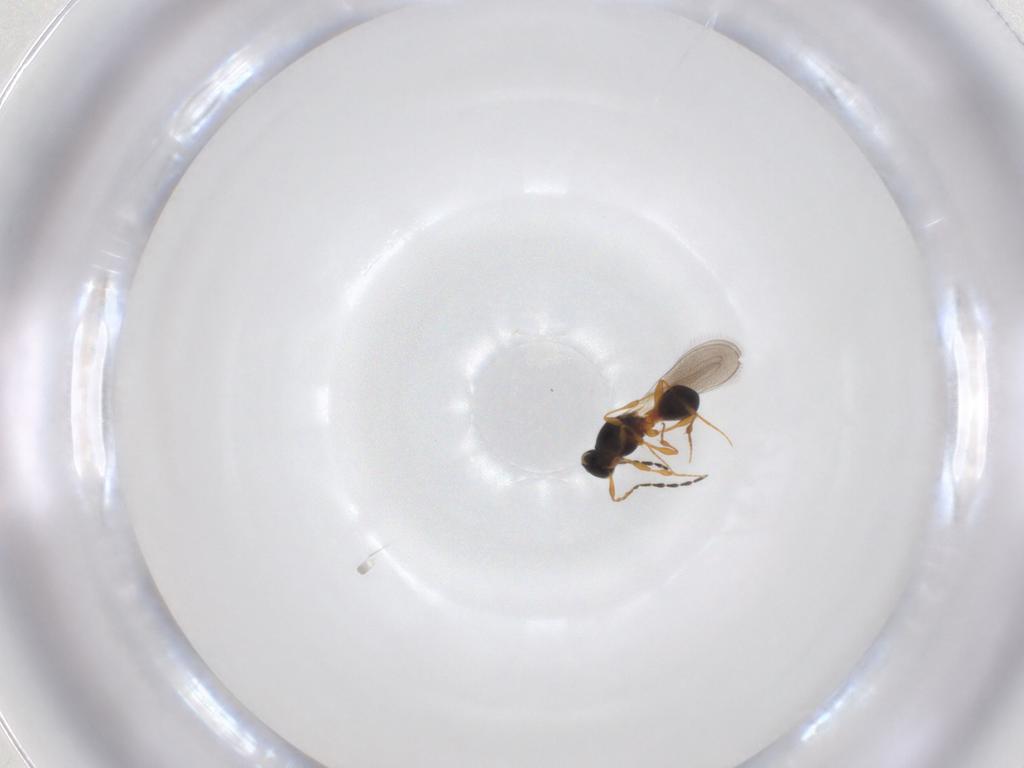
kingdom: Animalia
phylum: Arthropoda
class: Insecta
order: Hymenoptera
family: Platygastridae
